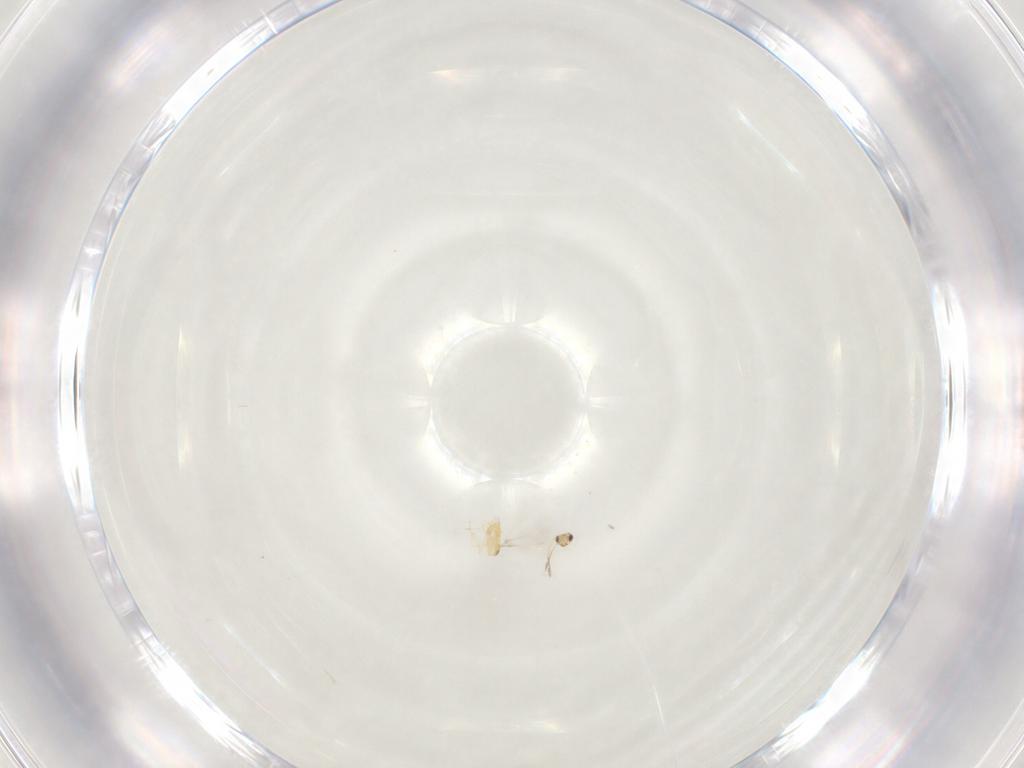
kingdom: Animalia
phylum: Arthropoda
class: Insecta
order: Hymenoptera
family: Mymaridae
